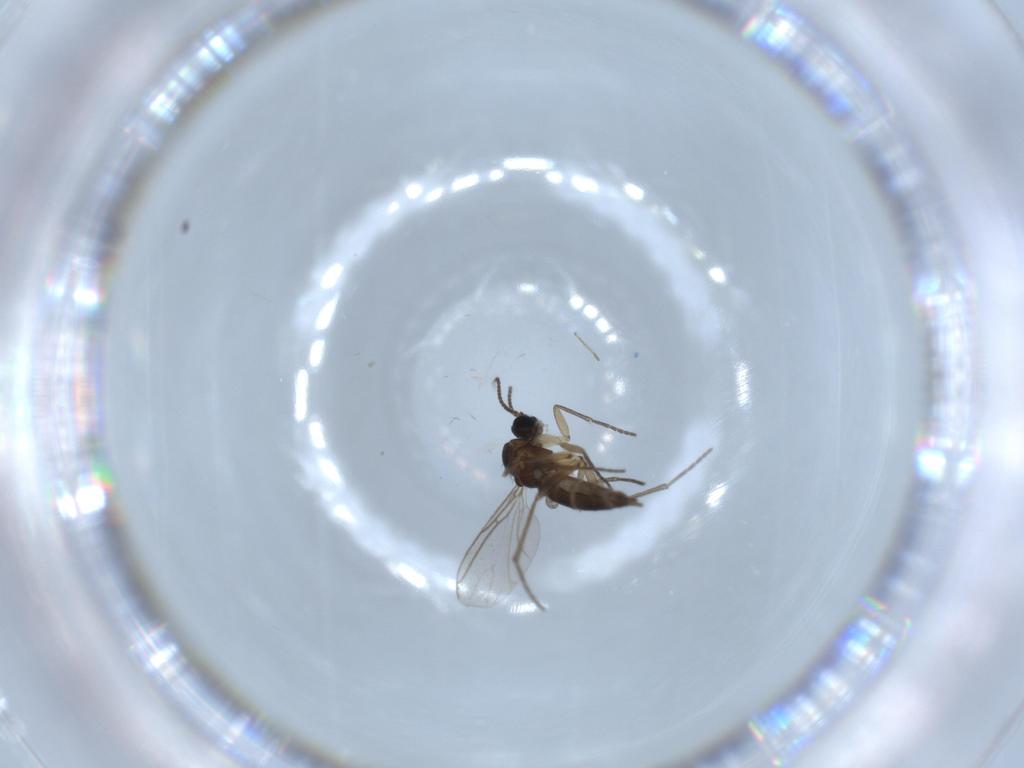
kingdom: Animalia
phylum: Arthropoda
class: Insecta
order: Diptera
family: Sciaridae
